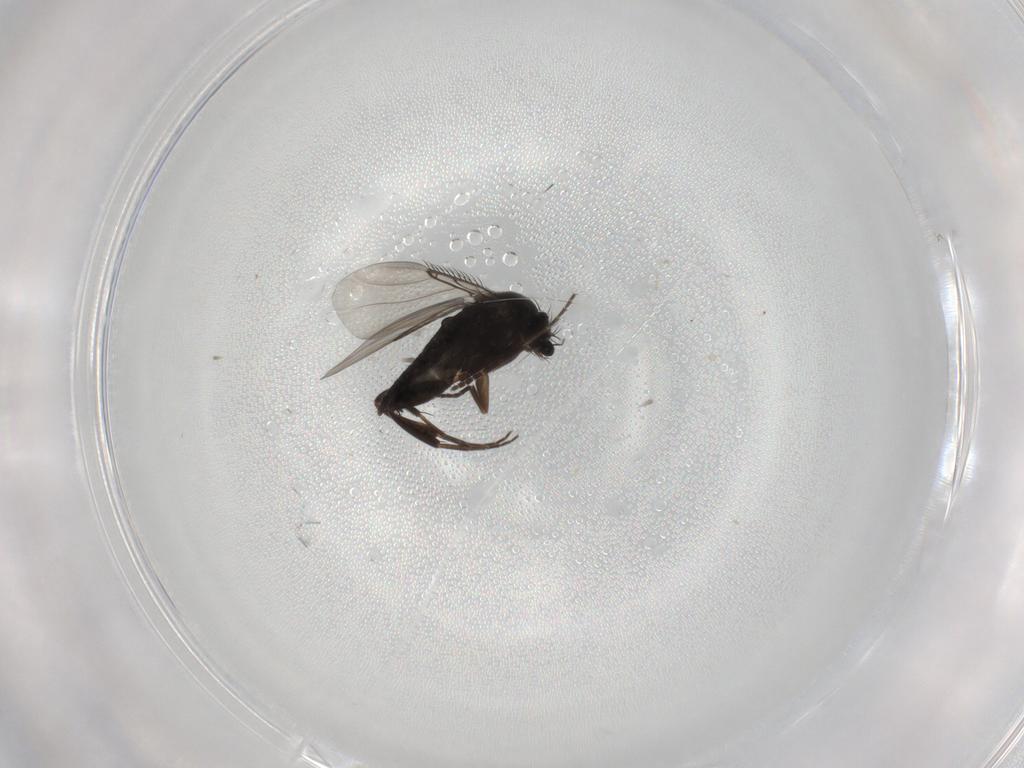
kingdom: Animalia
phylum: Arthropoda
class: Insecta
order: Diptera
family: Phoridae
